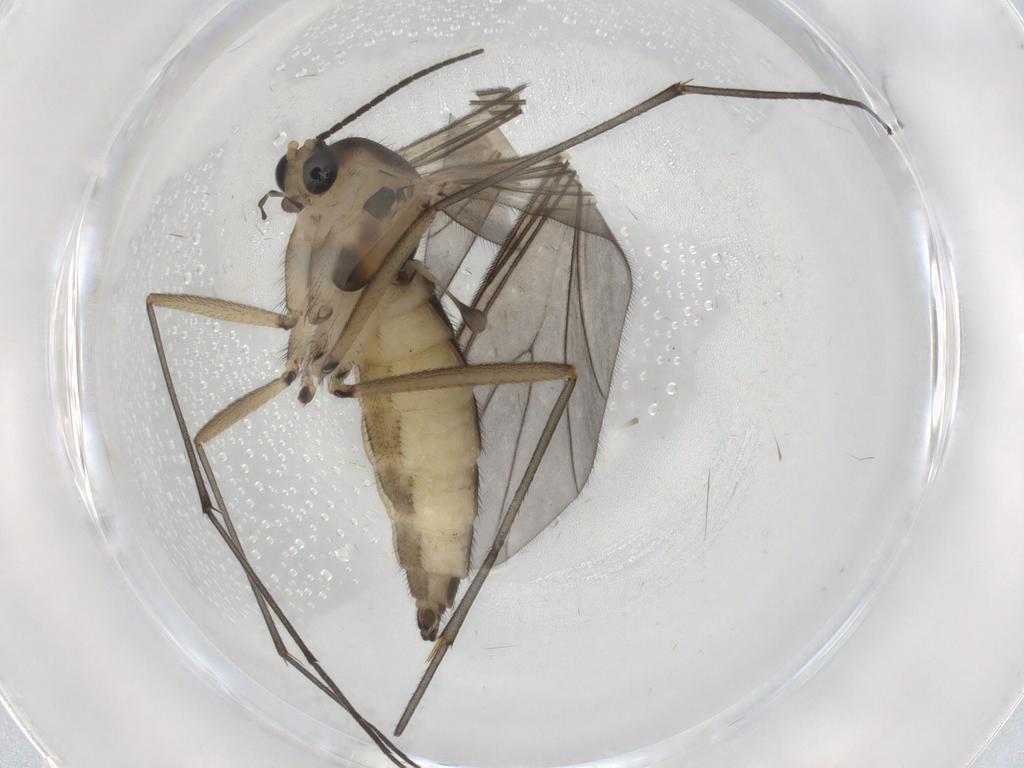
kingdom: Animalia
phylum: Arthropoda
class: Insecta
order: Diptera
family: Sciaridae
